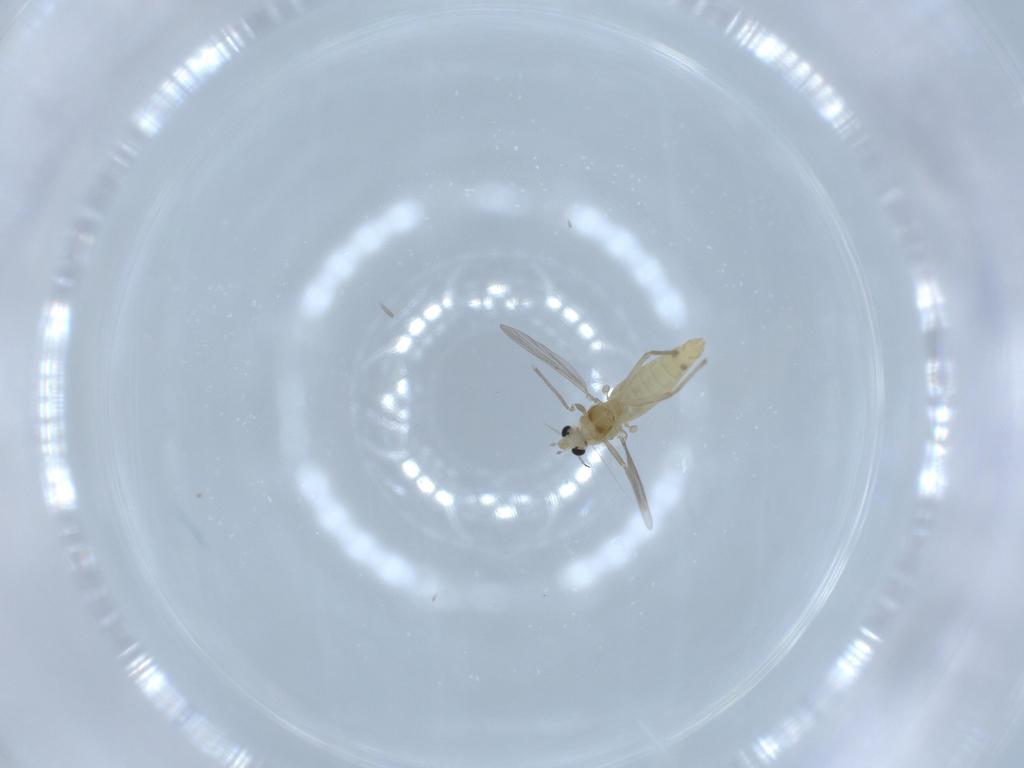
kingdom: Animalia
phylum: Arthropoda
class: Insecta
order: Diptera
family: Chironomidae
